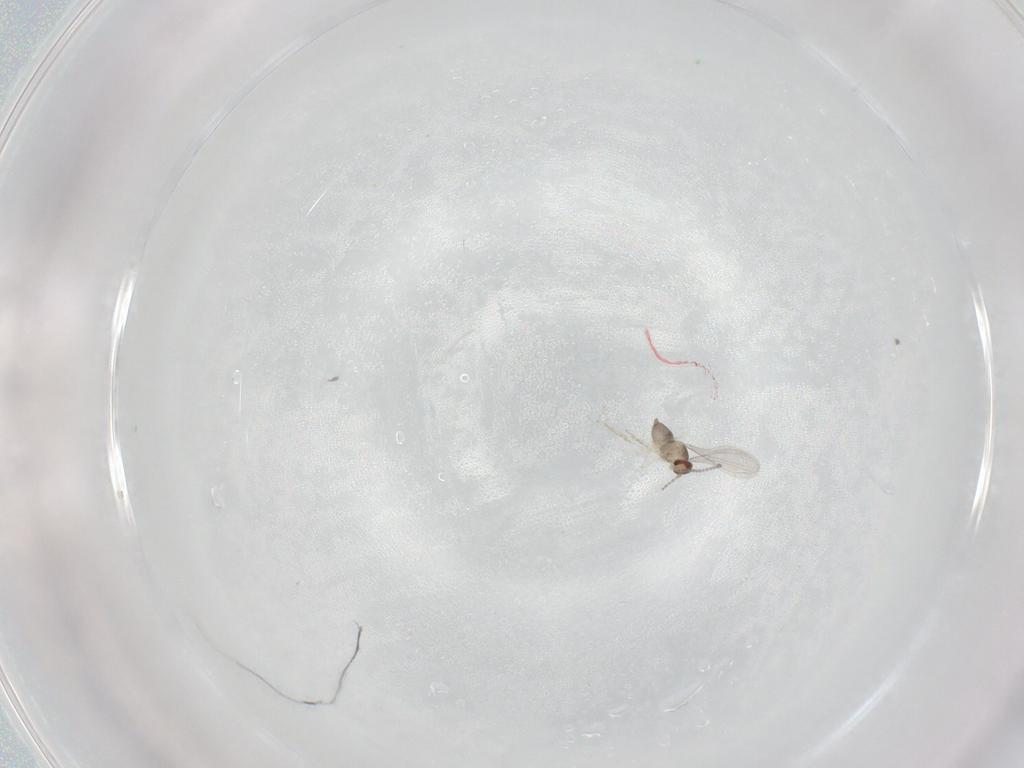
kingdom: Animalia
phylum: Arthropoda
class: Insecta
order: Diptera
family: Cecidomyiidae
